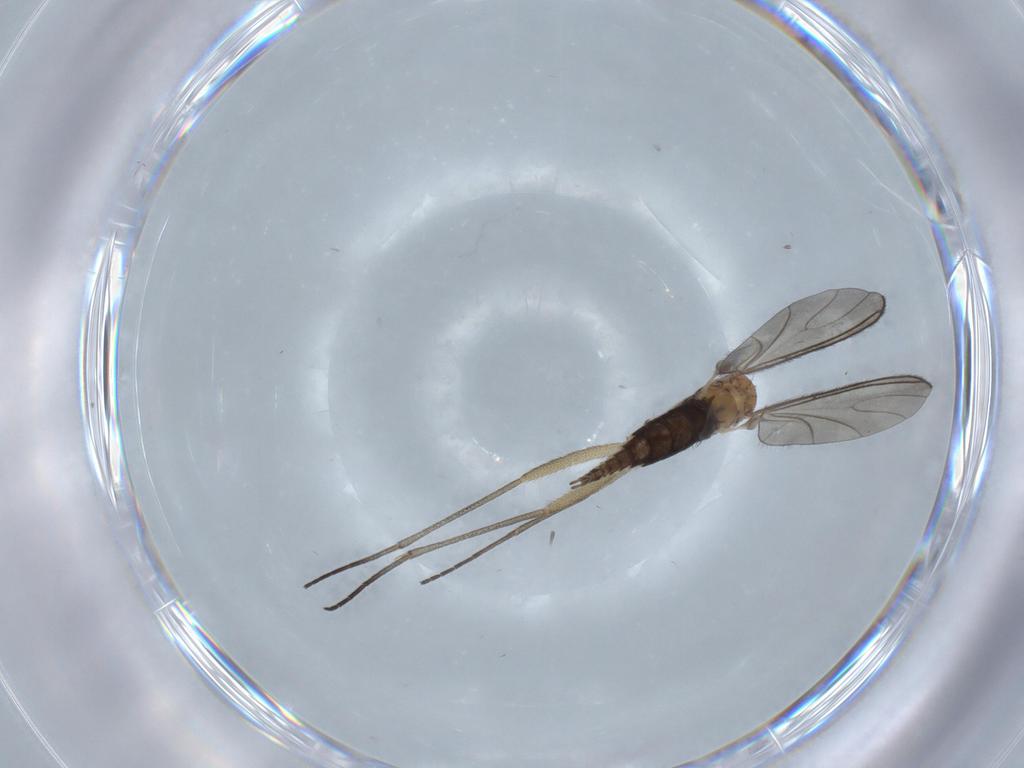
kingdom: Animalia
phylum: Arthropoda
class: Insecta
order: Diptera
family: Sciaridae
